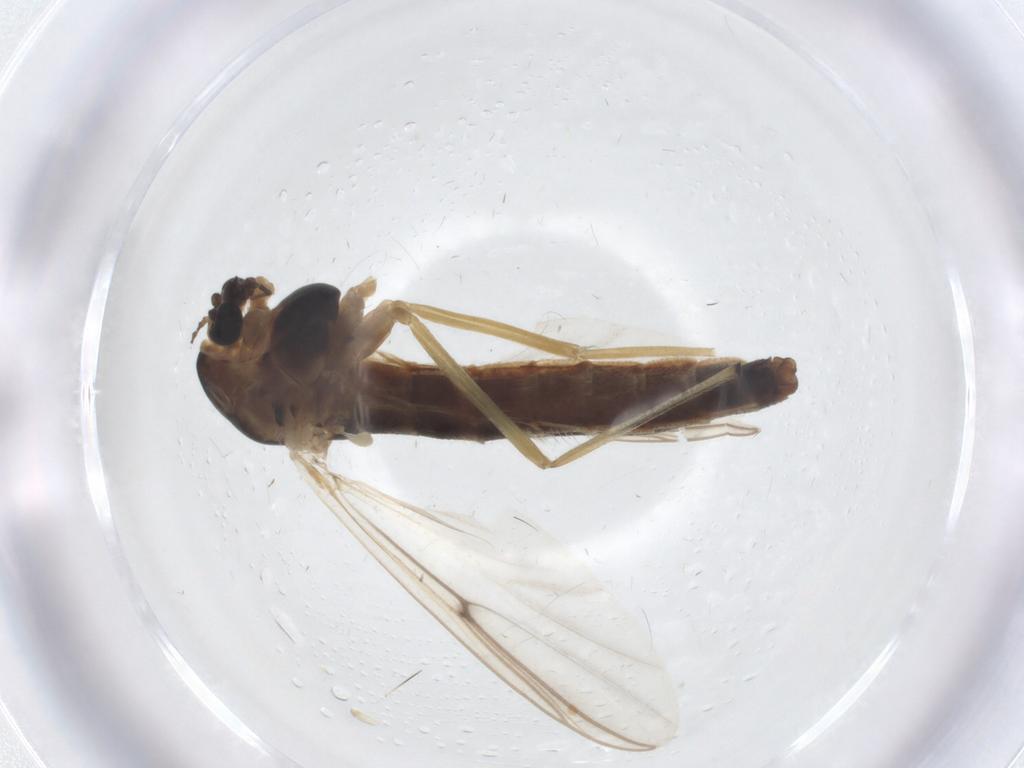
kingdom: Animalia
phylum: Arthropoda
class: Insecta
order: Diptera
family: Chironomidae
